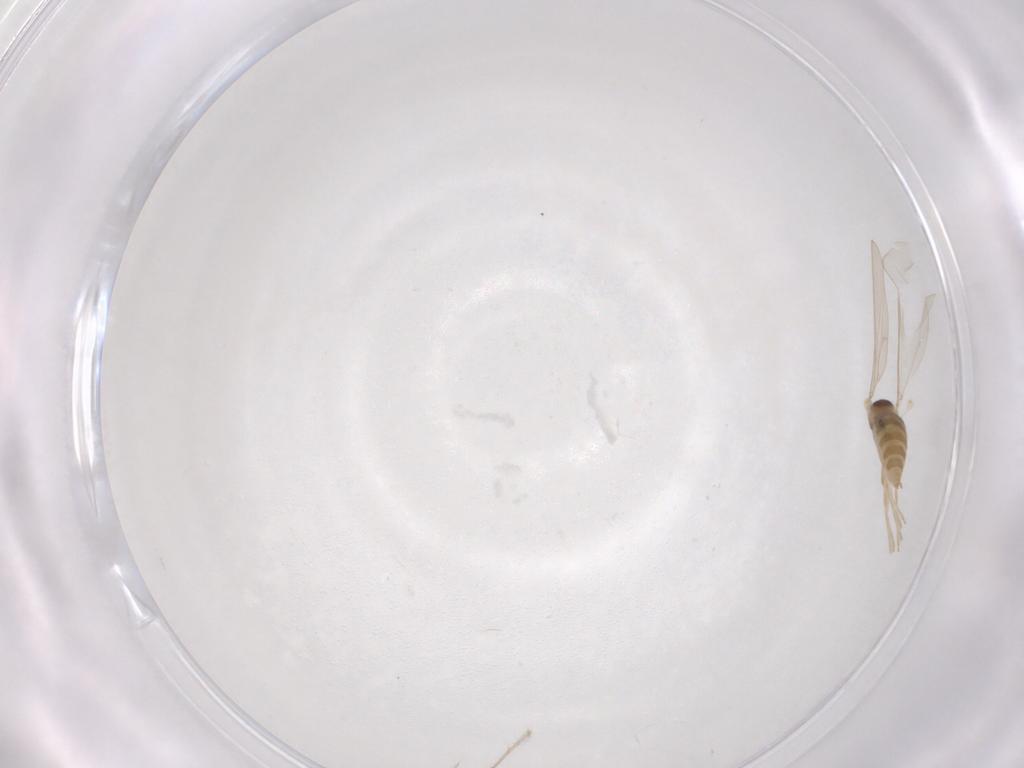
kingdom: Animalia
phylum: Arthropoda
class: Insecta
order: Diptera
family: Cecidomyiidae
